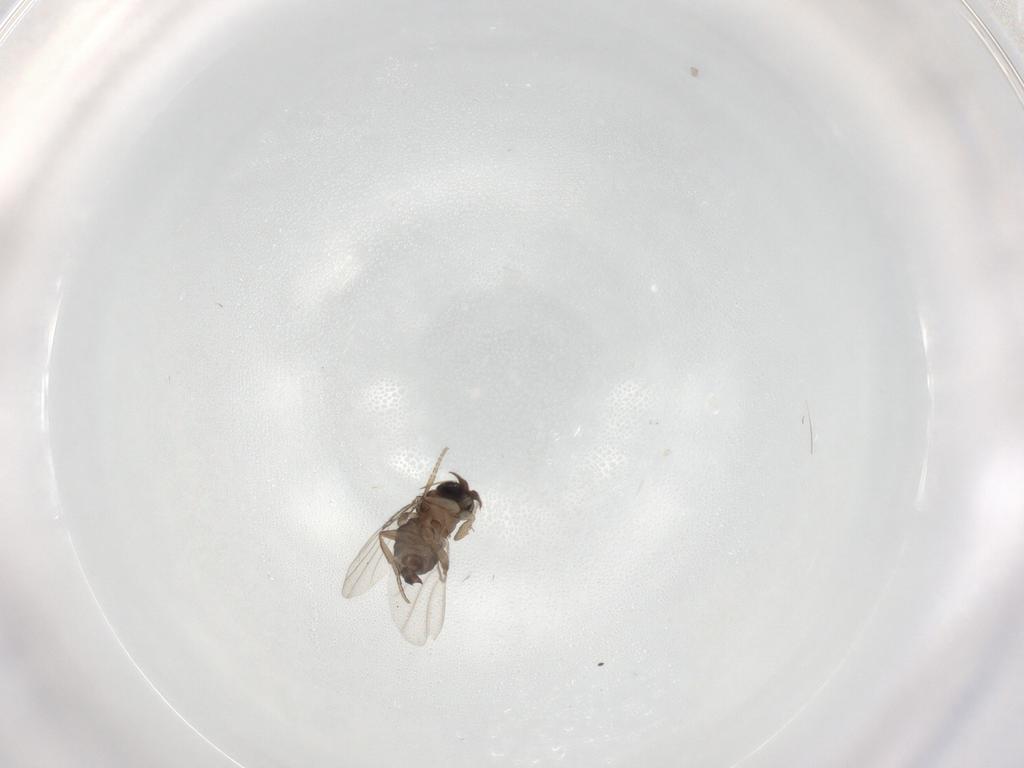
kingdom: Animalia
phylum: Arthropoda
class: Insecta
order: Diptera
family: Phoridae
